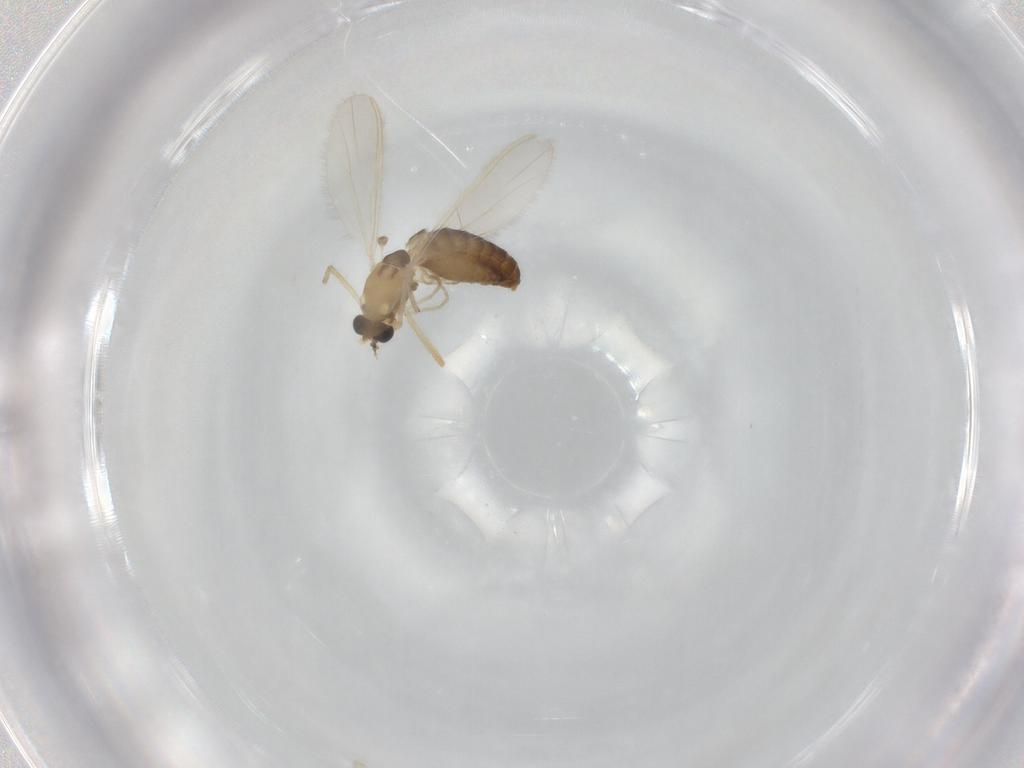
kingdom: Animalia
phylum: Arthropoda
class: Insecta
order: Diptera
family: Chironomidae
